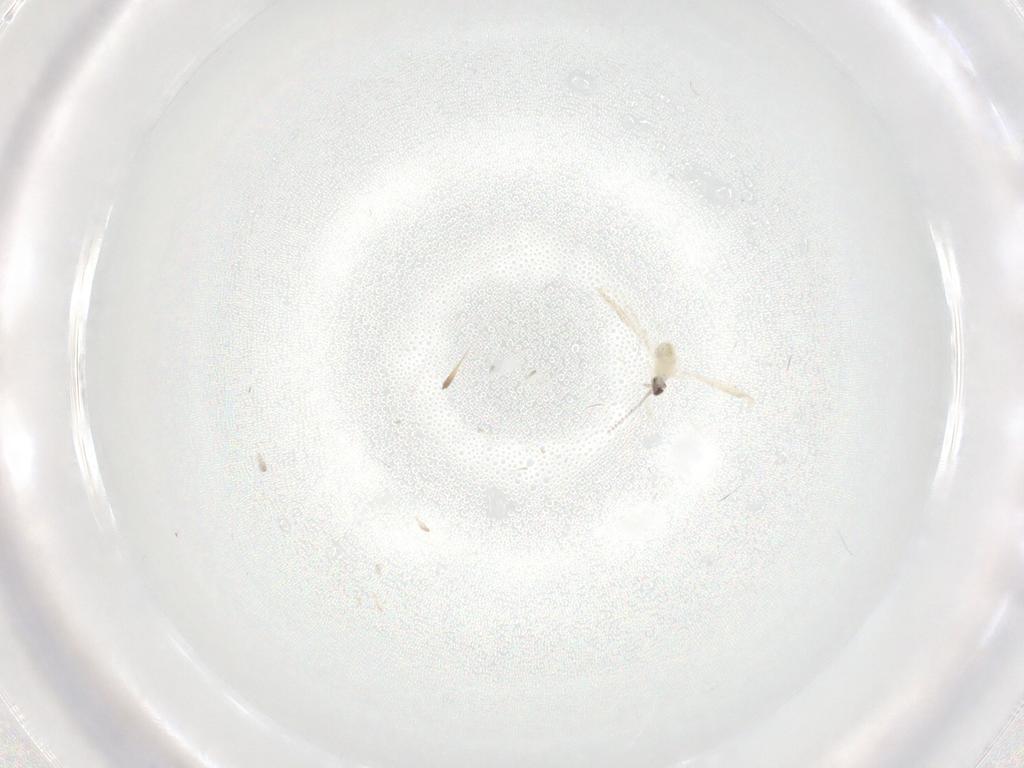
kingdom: Animalia
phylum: Arthropoda
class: Insecta
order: Diptera
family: Cecidomyiidae
